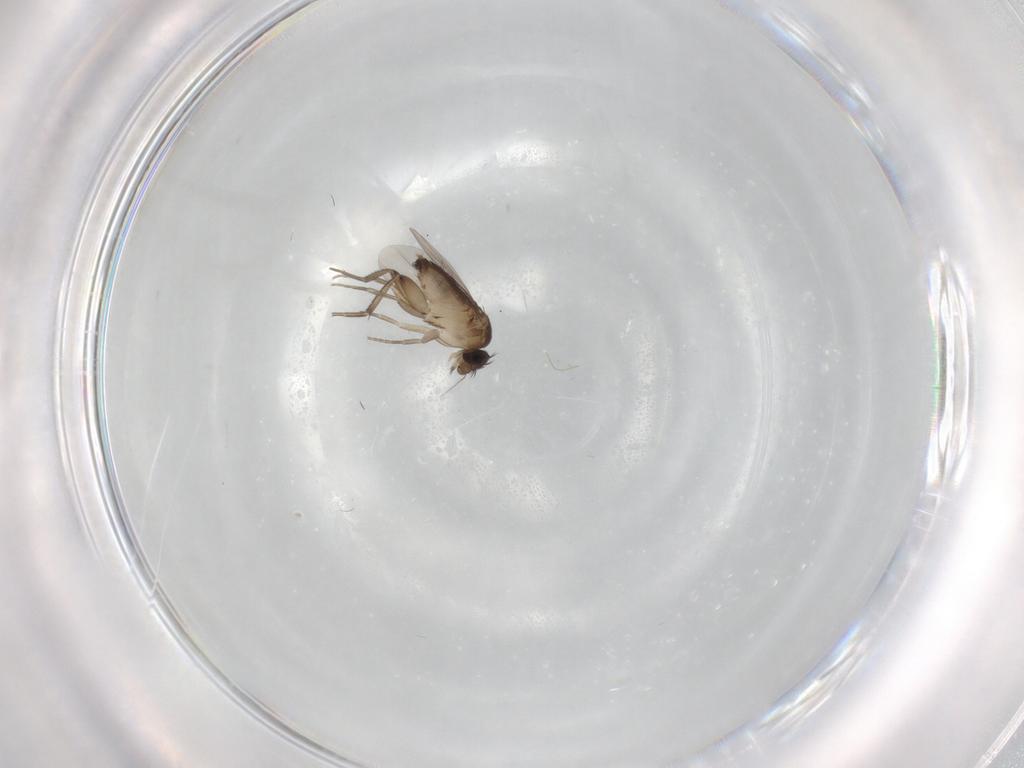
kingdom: Animalia
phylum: Arthropoda
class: Insecta
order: Diptera
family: Phoridae
